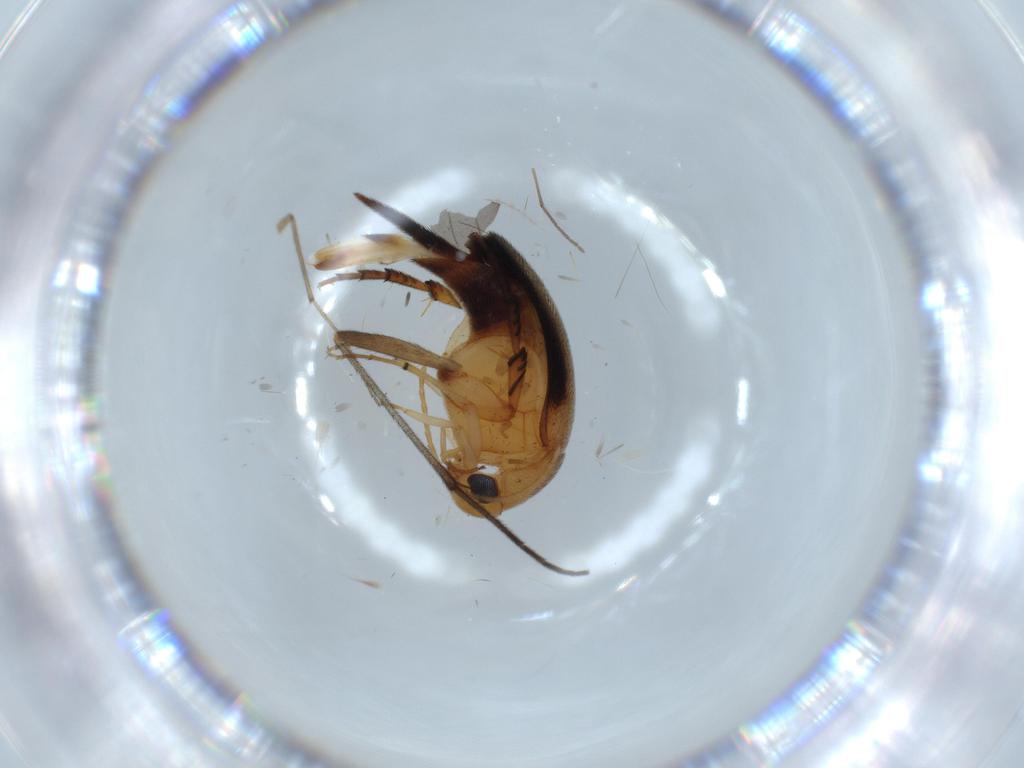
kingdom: Animalia
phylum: Arthropoda
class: Insecta
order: Coleoptera
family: Mordellidae
